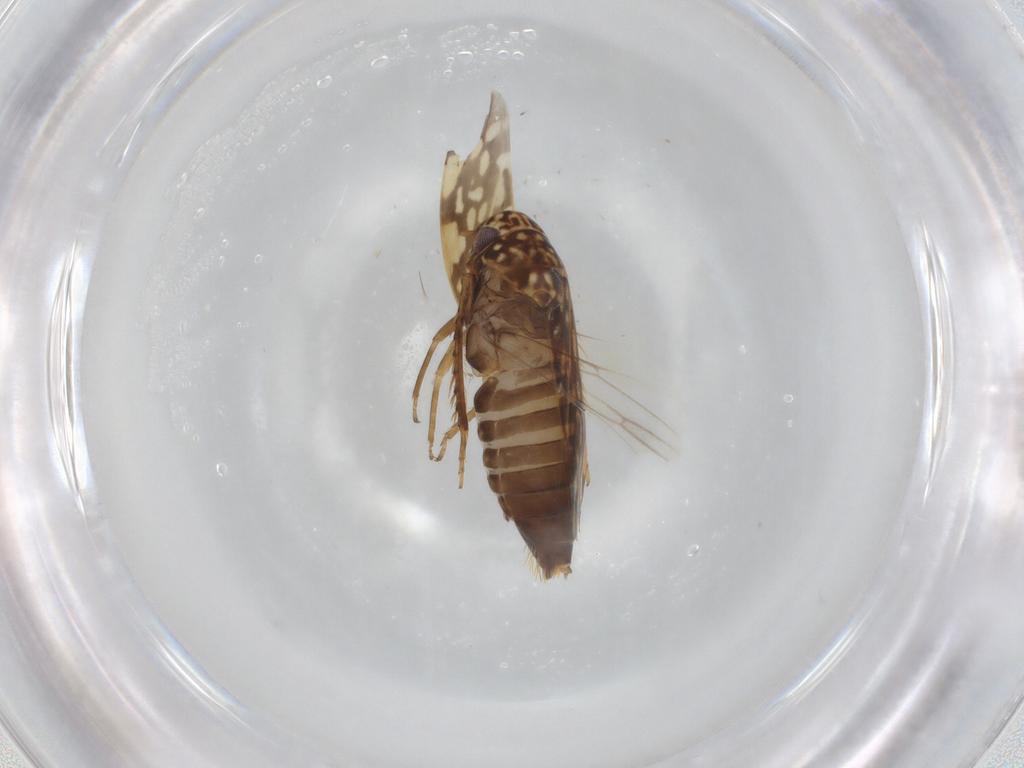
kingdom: Animalia
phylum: Arthropoda
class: Insecta
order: Hemiptera
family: Cicadellidae
